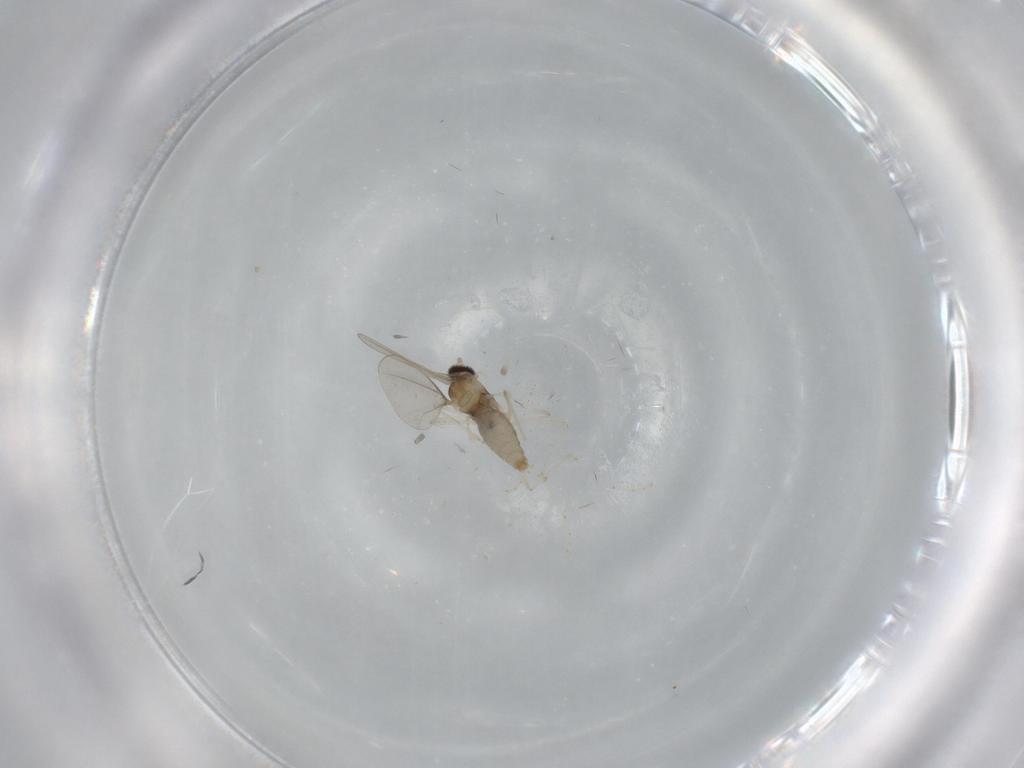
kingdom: Animalia
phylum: Arthropoda
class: Insecta
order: Diptera
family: Cecidomyiidae
